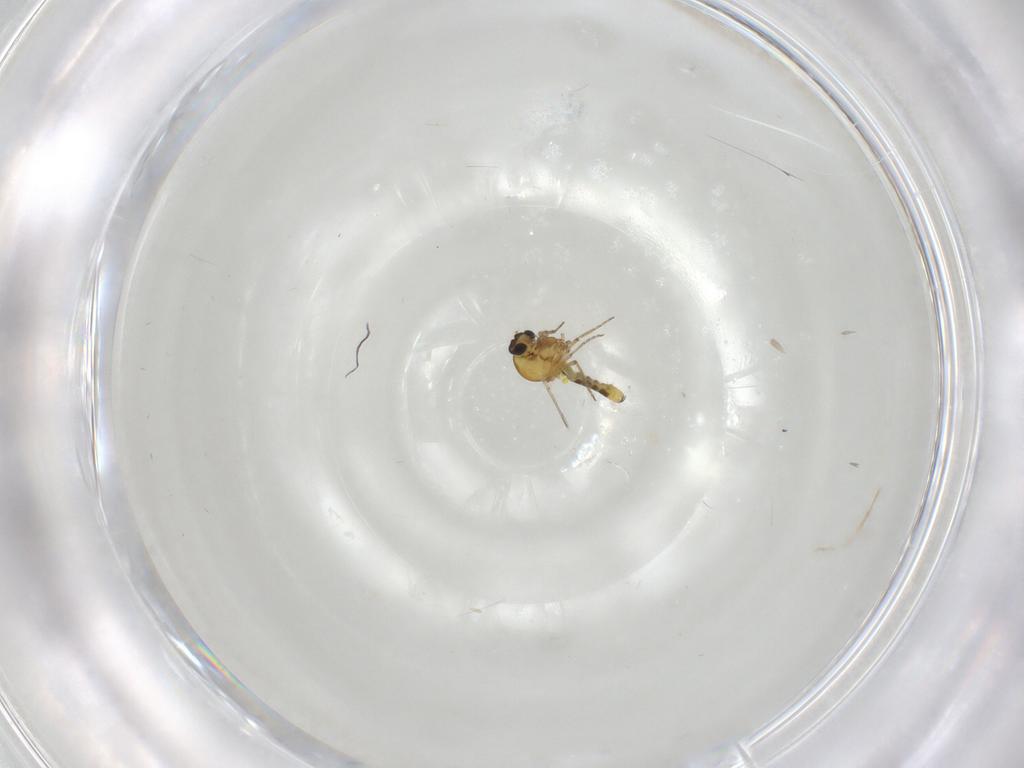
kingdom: Animalia
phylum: Arthropoda
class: Insecta
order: Diptera
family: Ceratopogonidae
